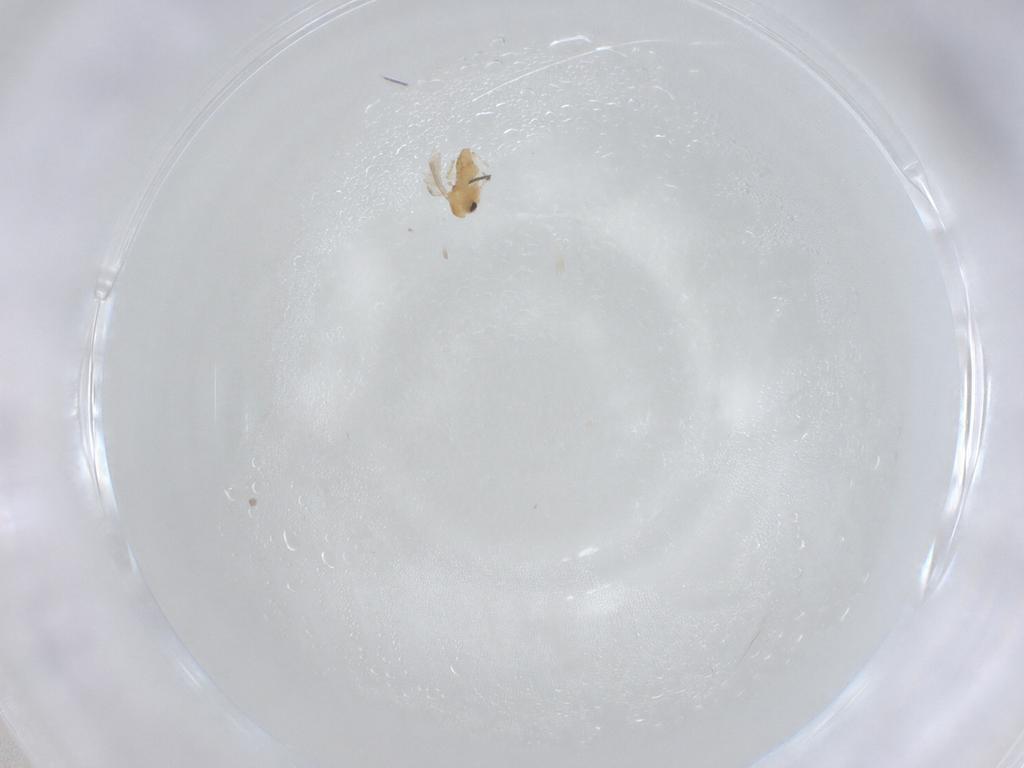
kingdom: Animalia
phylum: Arthropoda
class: Insecta
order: Diptera
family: Chironomidae
